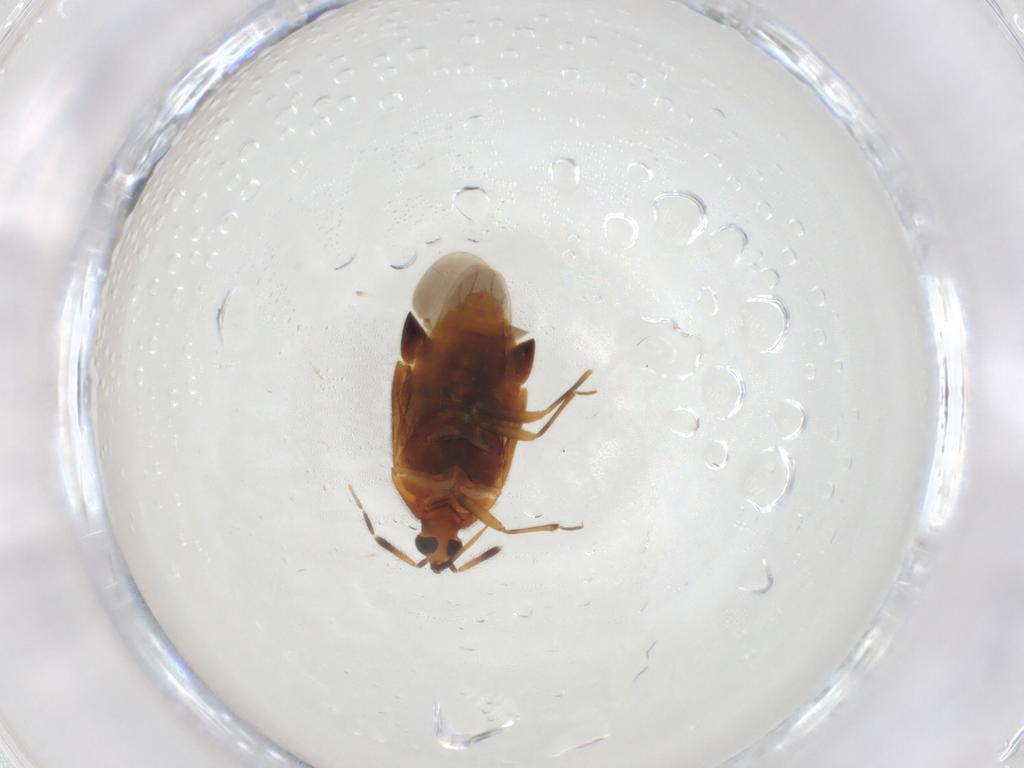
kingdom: Animalia
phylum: Arthropoda
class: Insecta
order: Hemiptera
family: Anthocoridae
